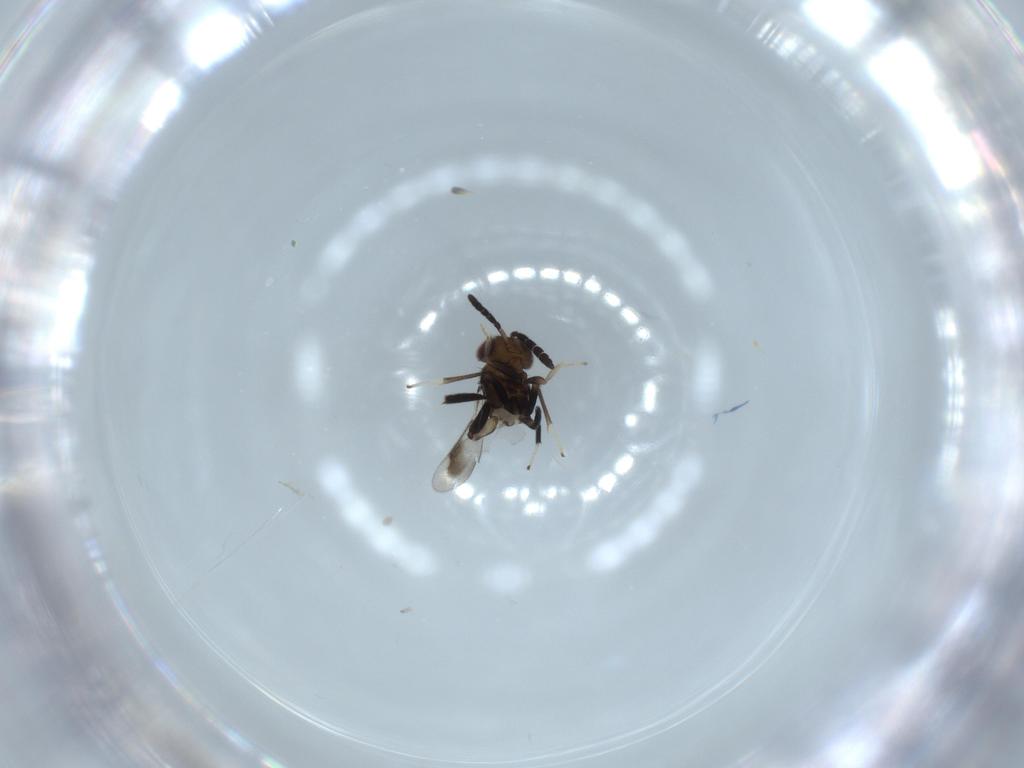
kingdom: Animalia
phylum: Arthropoda
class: Insecta
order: Hymenoptera
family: Aphelinidae
